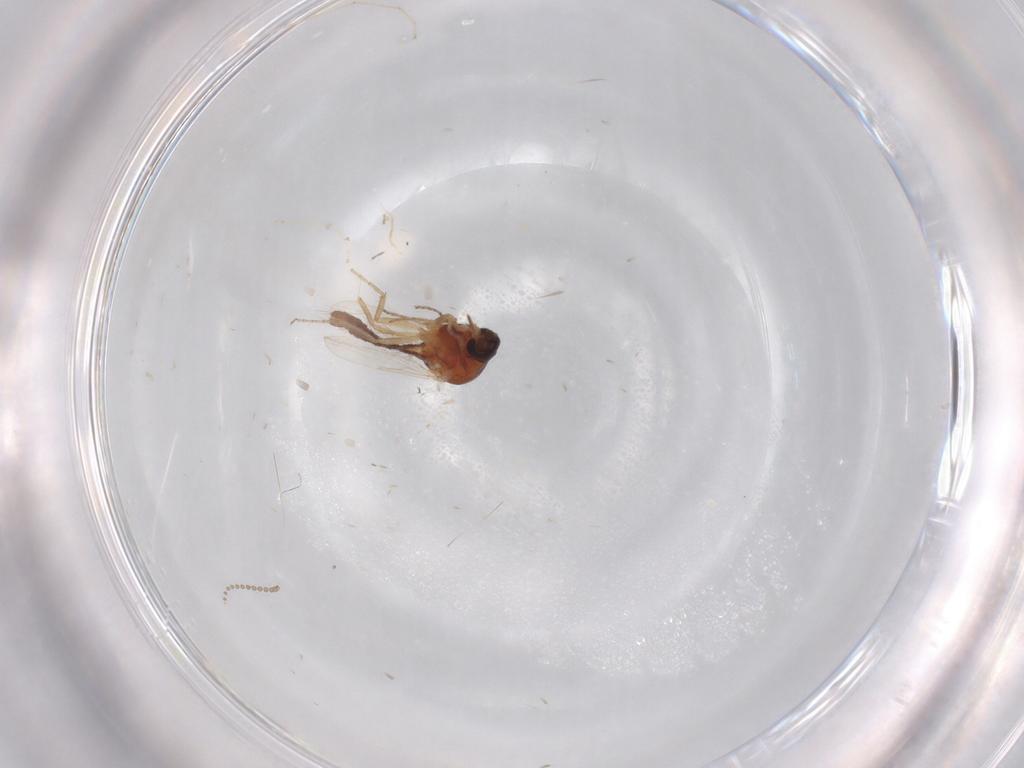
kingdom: Animalia
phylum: Arthropoda
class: Insecta
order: Diptera
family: Ceratopogonidae
